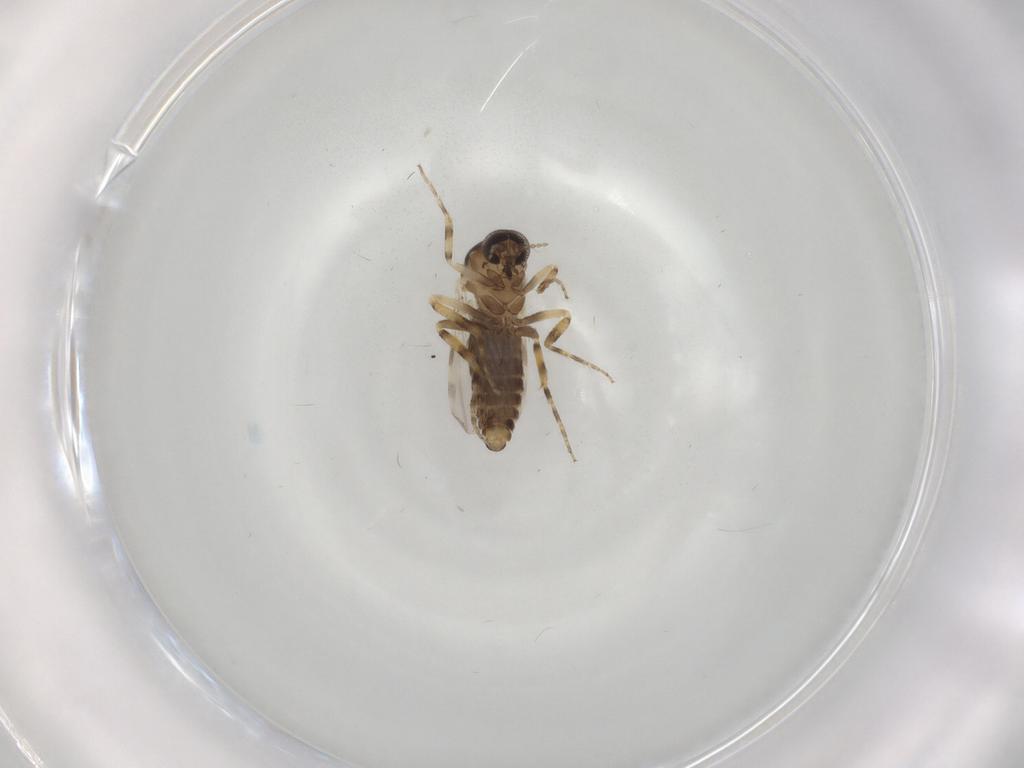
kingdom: Animalia
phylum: Arthropoda
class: Insecta
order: Diptera
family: Ceratopogonidae
